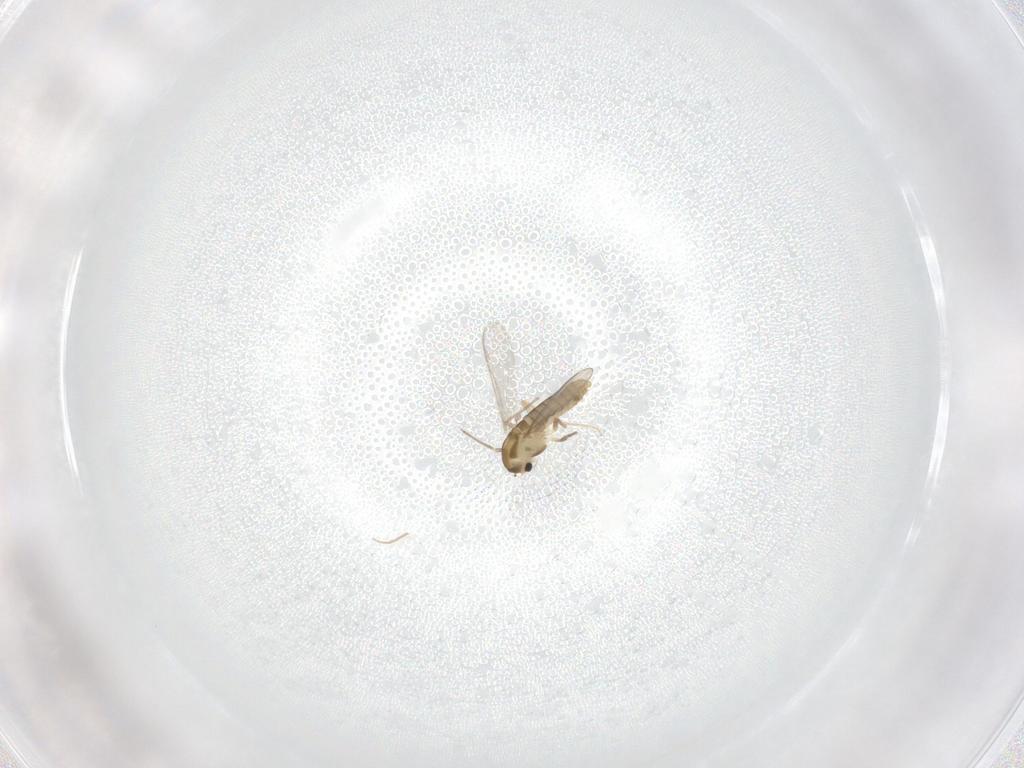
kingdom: Animalia
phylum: Arthropoda
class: Insecta
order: Diptera
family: Chironomidae
